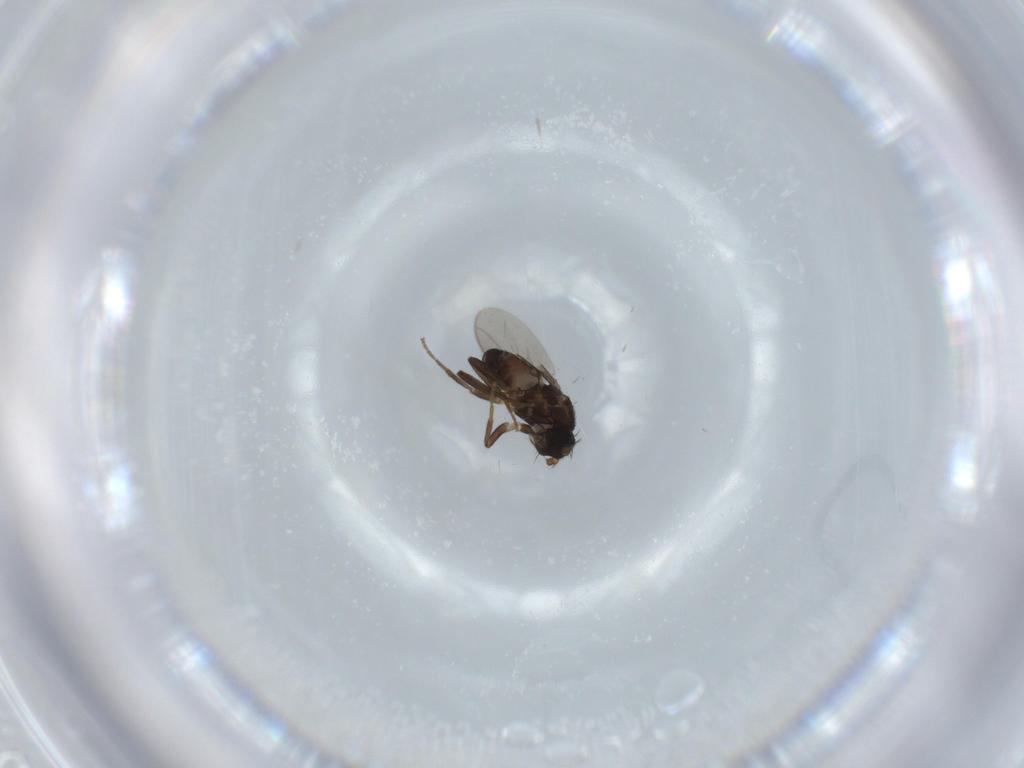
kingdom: Animalia
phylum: Arthropoda
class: Insecta
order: Diptera
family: Sphaeroceridae
